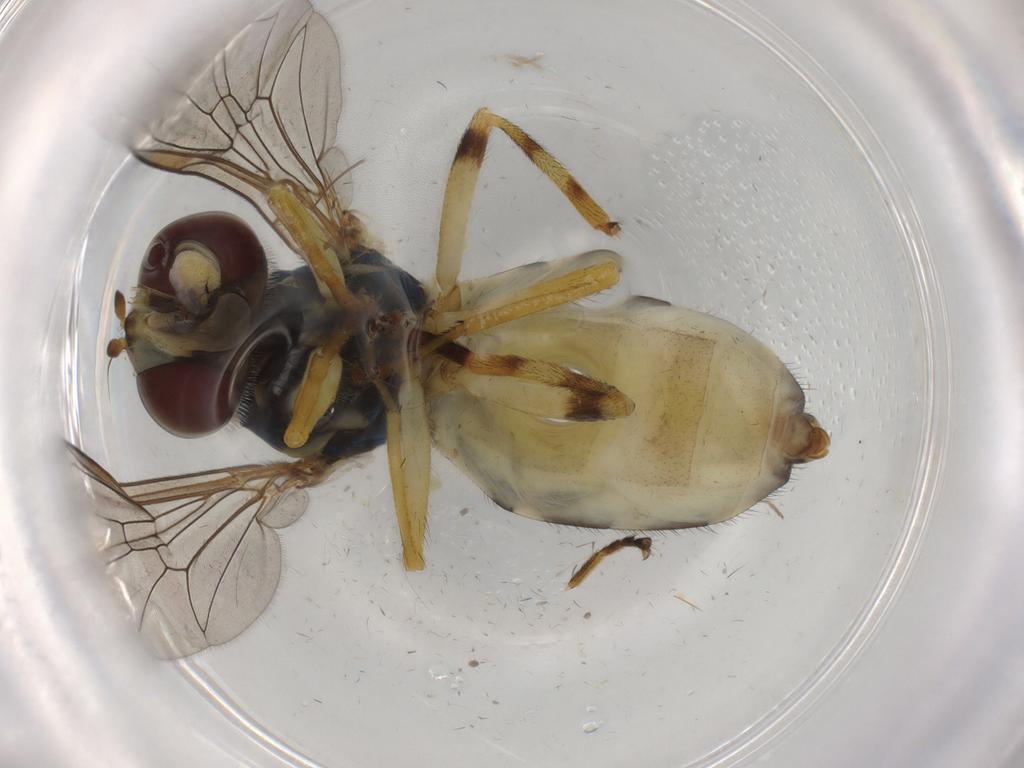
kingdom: Animalia
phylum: Arthropoda
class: Insecta
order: Diptera
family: Syrphidae
